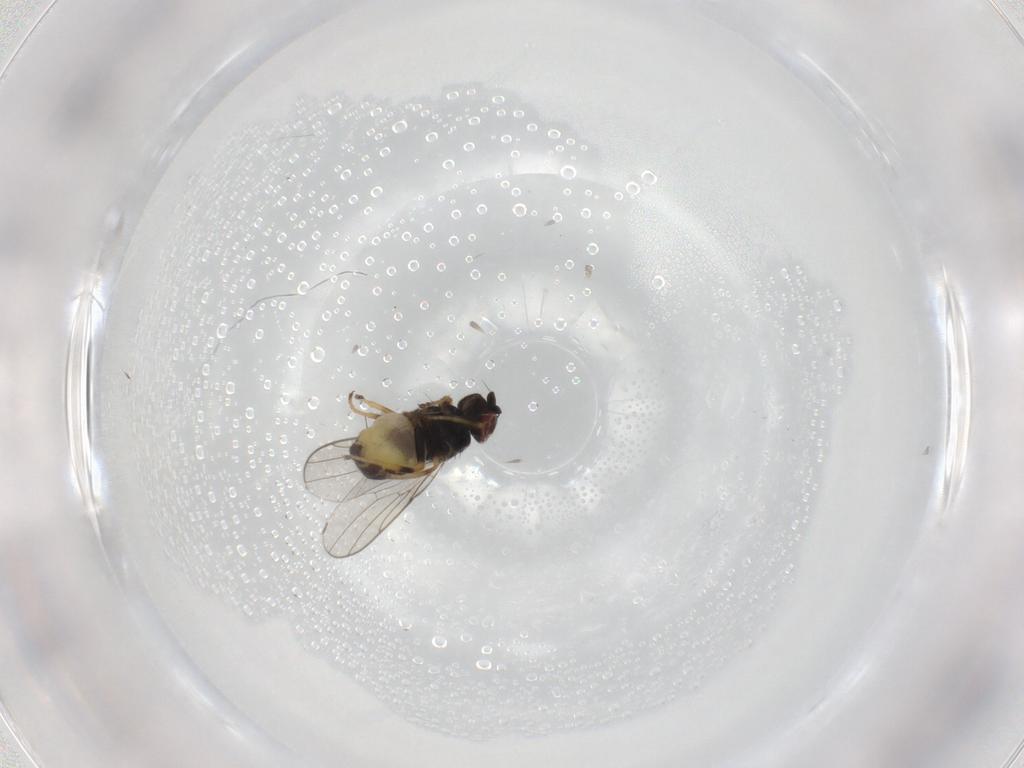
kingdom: Animalia
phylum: Arthropoda
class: Insecta
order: Diptera
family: Chloropidae
